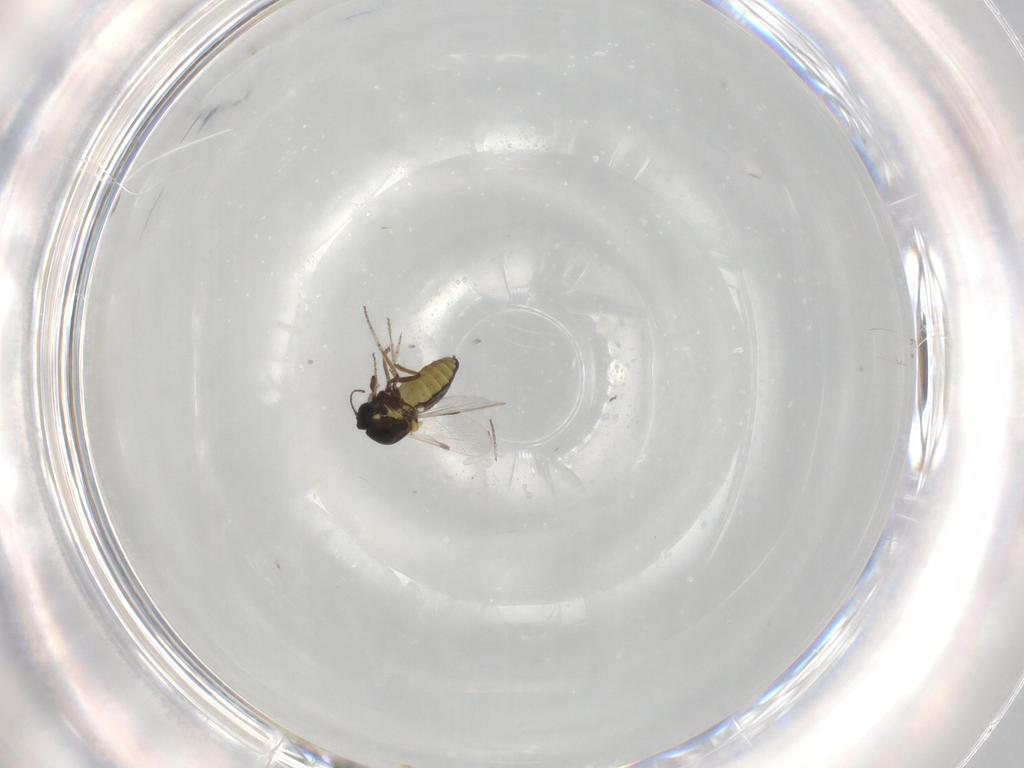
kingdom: Animalia
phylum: Arthropoda
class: Insecta
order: Diptera
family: Ceratopogonidae
